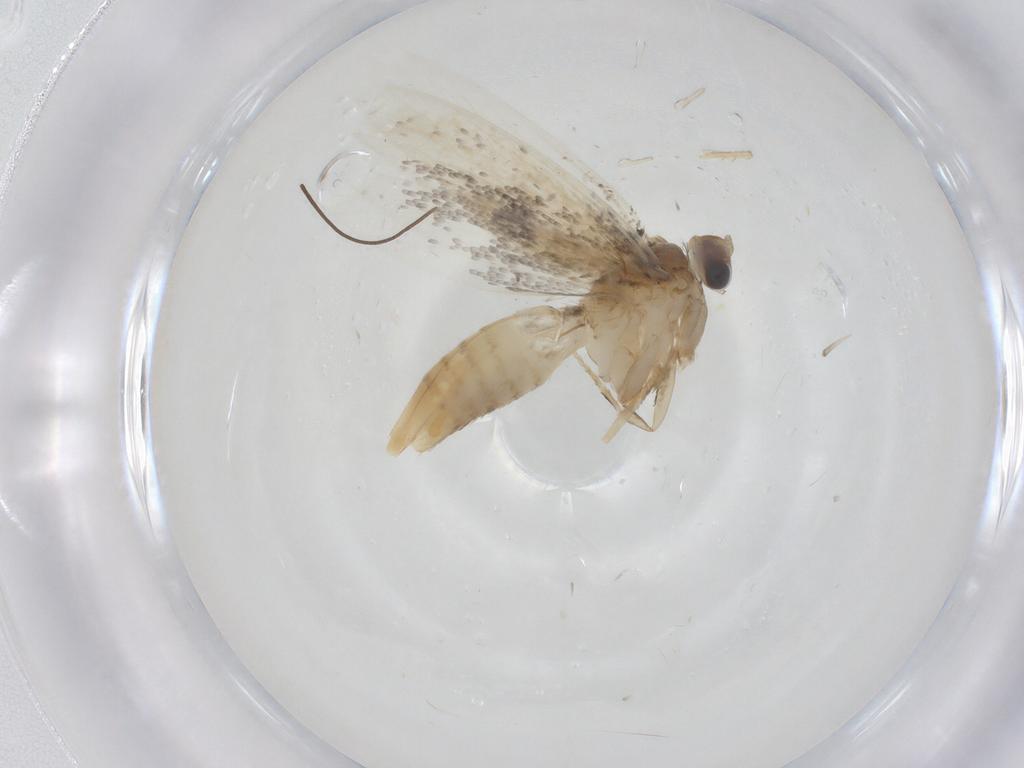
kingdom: Animalia
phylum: Arthropoda
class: Insecta
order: Lepidoptera
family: Tineidae
